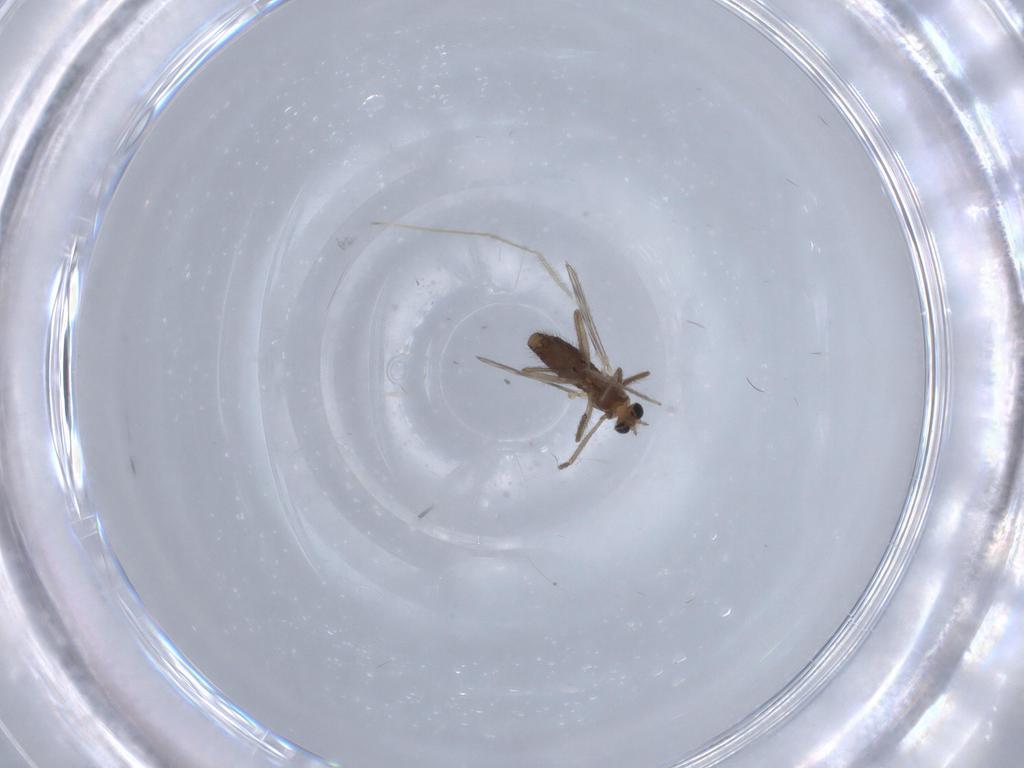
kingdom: Animalia
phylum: Arthropoda
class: Insecta
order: Diptera
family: Chironomidae
